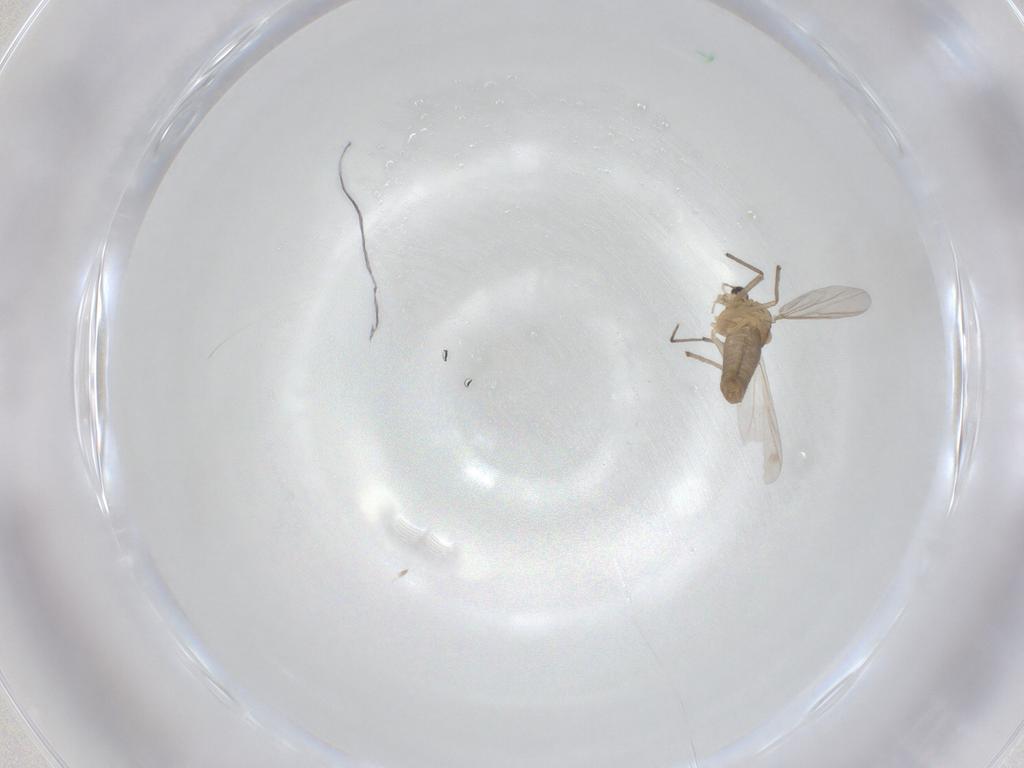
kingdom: Animalia
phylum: Arthropoda
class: Insecta
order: Diptera
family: Chironomidae
